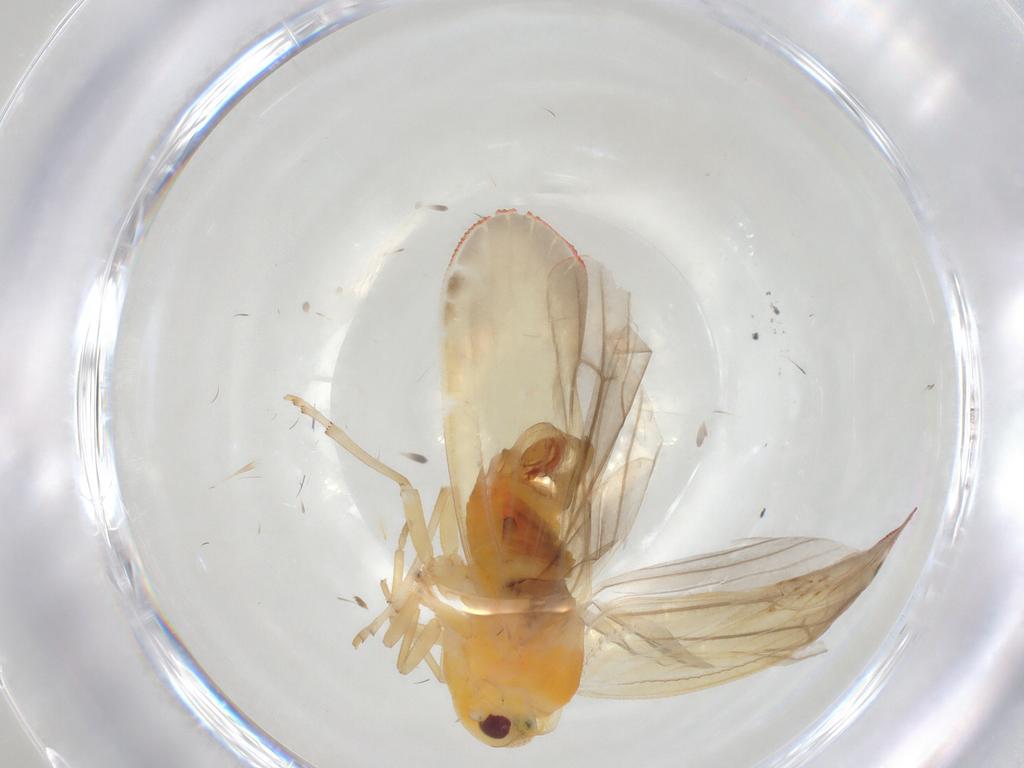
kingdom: Animalia
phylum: Arthropoda
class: Insecta
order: Hemiptera
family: Derbidae
